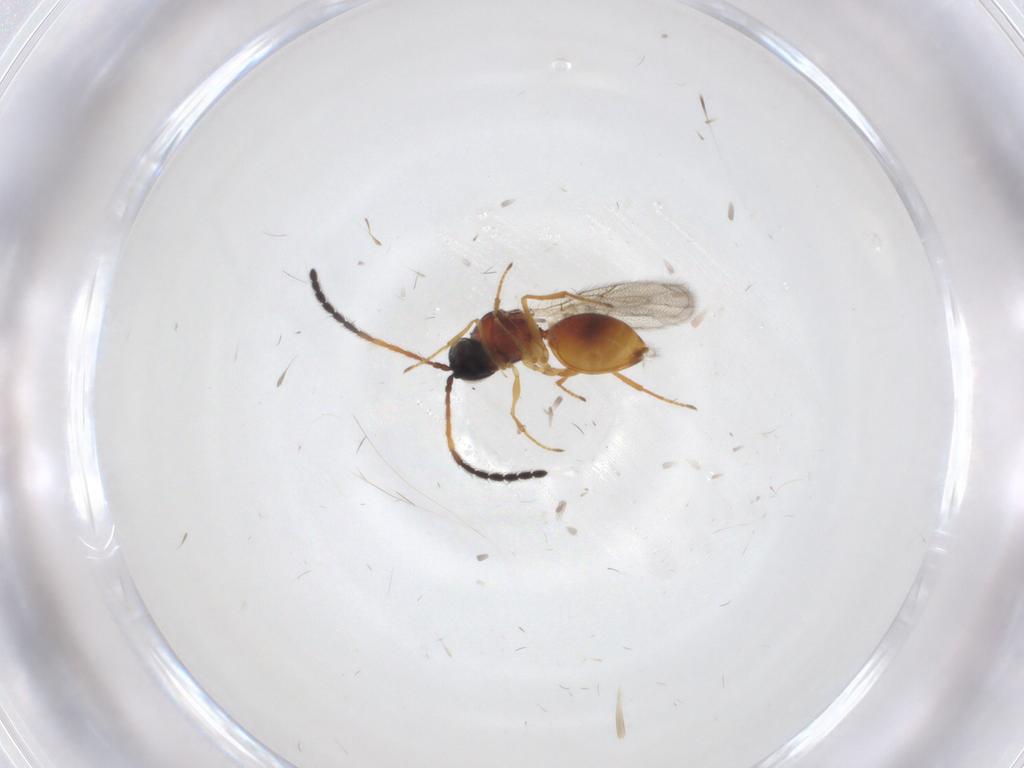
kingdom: Animalia
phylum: Arthropoda
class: Insecta
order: Hymenoptera
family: Figitidae
